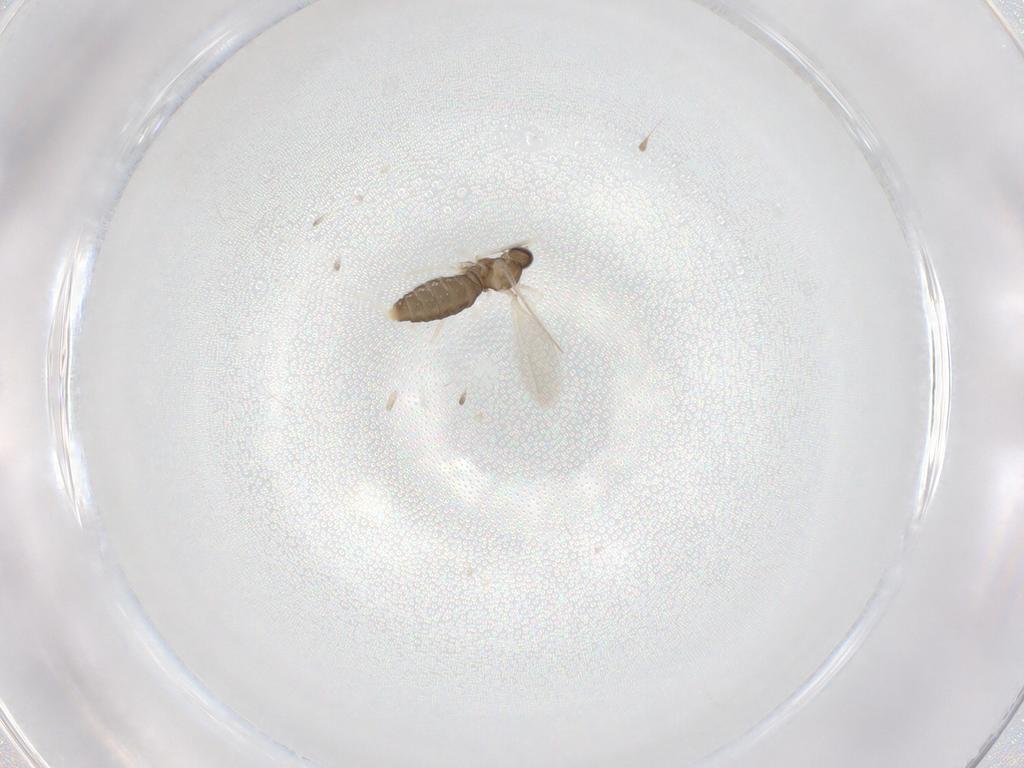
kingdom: Animalia
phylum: Arthropoda
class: Insecta
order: Diptera
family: Cecidomyiidae
